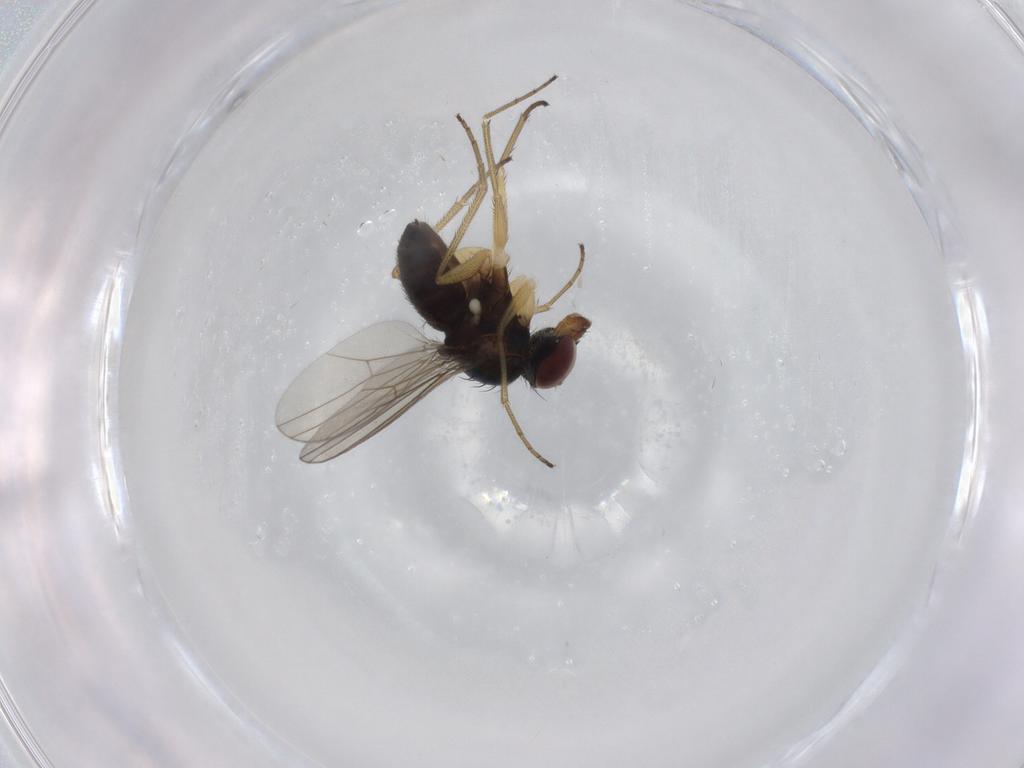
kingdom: Animalia
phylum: Arthropoda
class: Insecta
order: Diptera
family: Dolichopodidae
